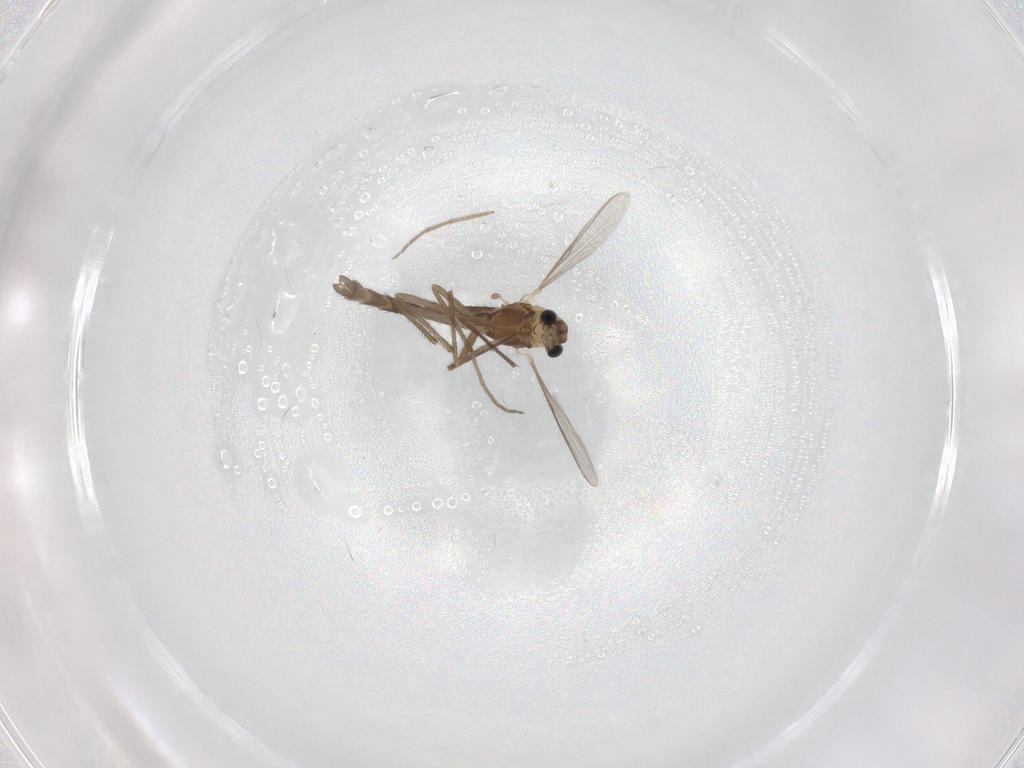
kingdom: Animalia
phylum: Arthropoda
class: Insecta
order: Diptera
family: Chironomidae
